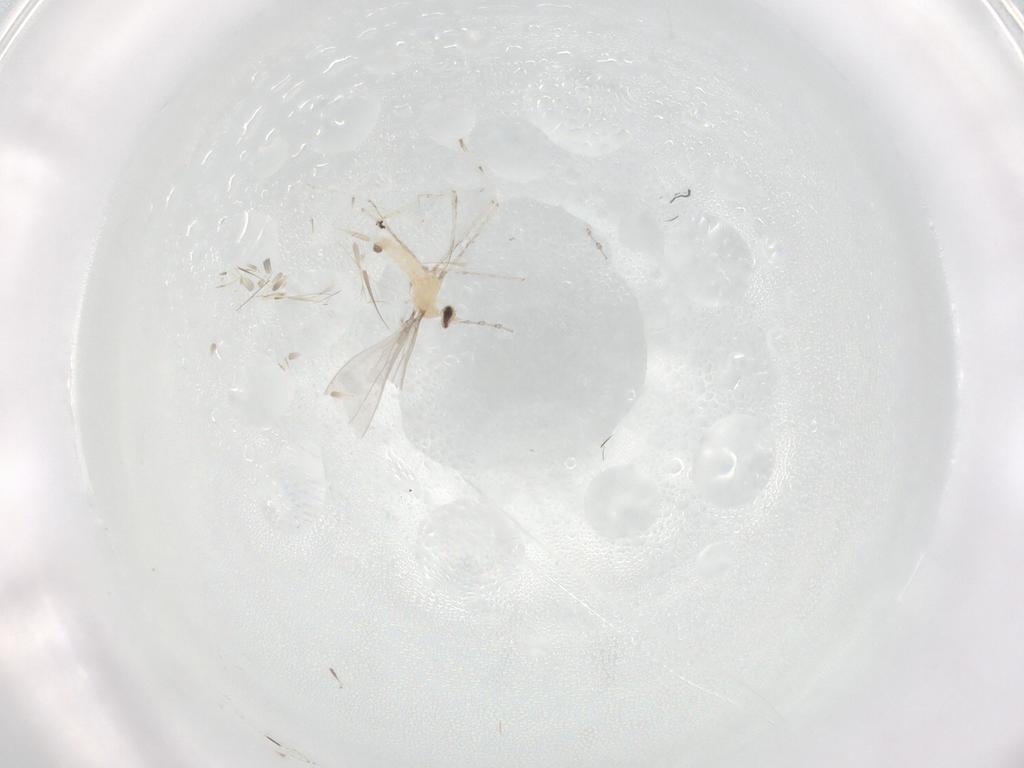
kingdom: Animalia
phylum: Arthropoda
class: Insecta
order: Diptera
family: Cecidomyiidae
